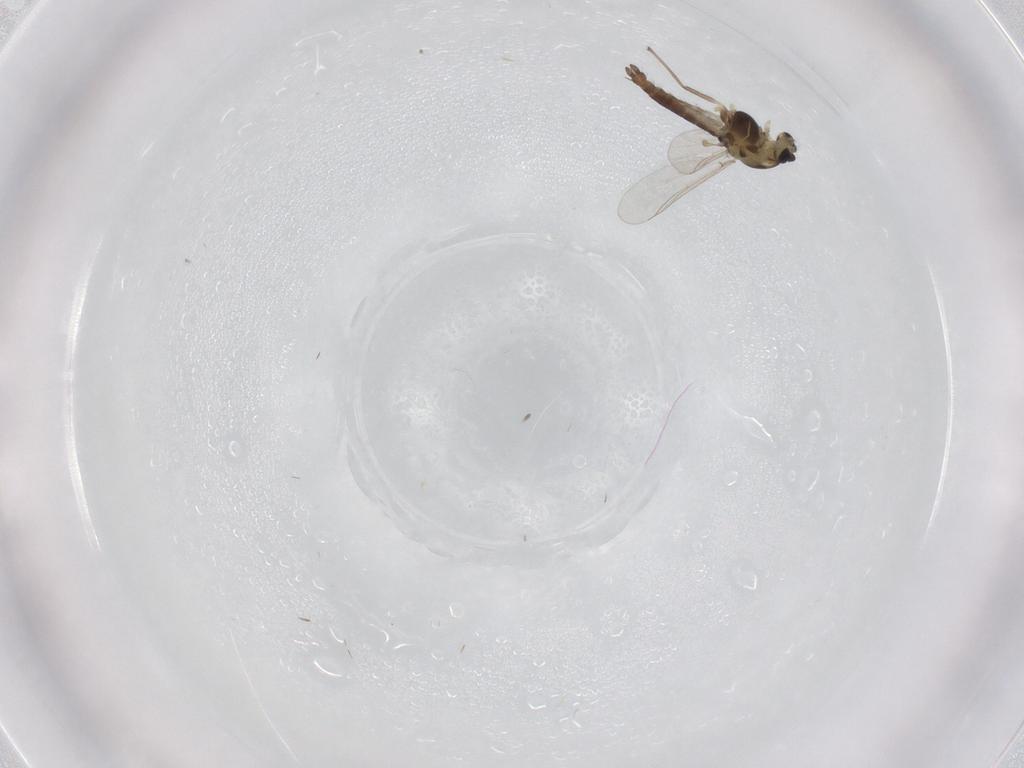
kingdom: Animalia
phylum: Arthropoda
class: Insecta
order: Diptera
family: Chironomidae
